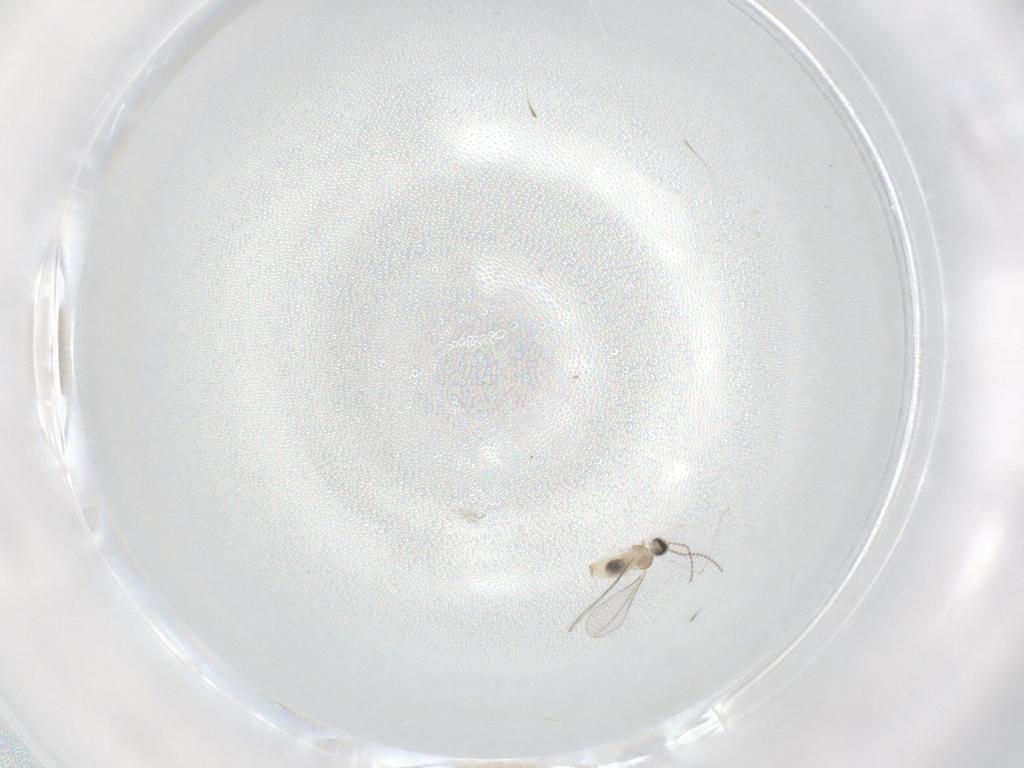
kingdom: Animalia
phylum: Arthropoda
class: Insecta
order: Diptera
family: Cecidomyiidae
